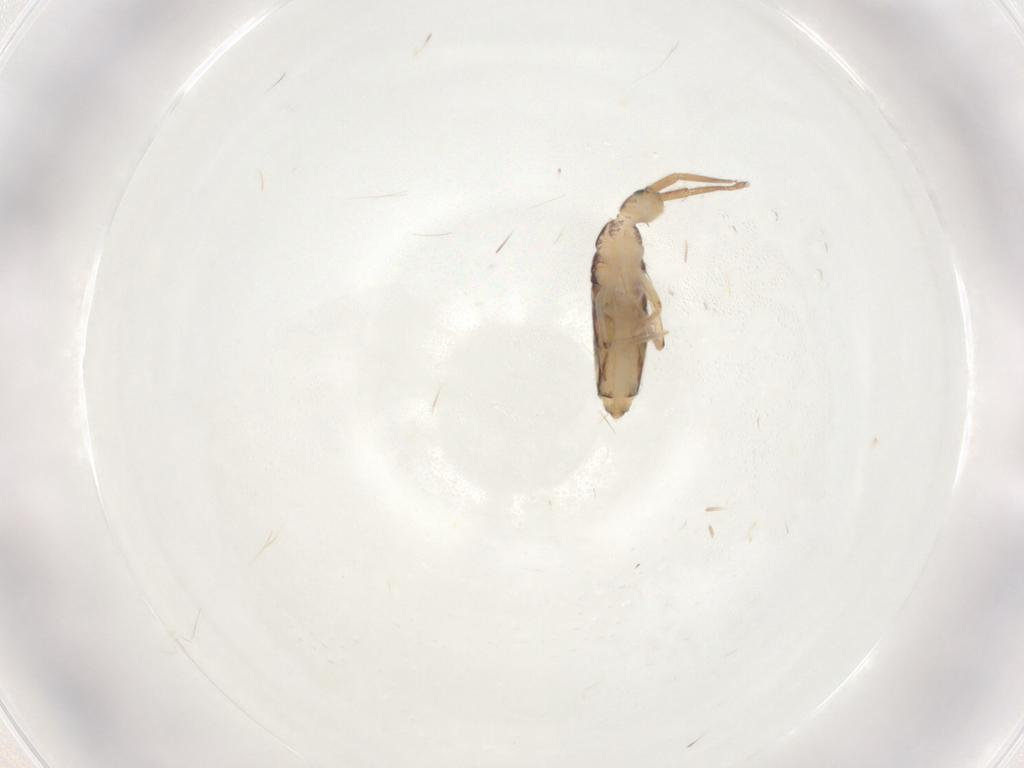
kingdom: Animalia
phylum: Arthropoda
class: Collembola
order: Entomobryomorpha
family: Entomobryidae
